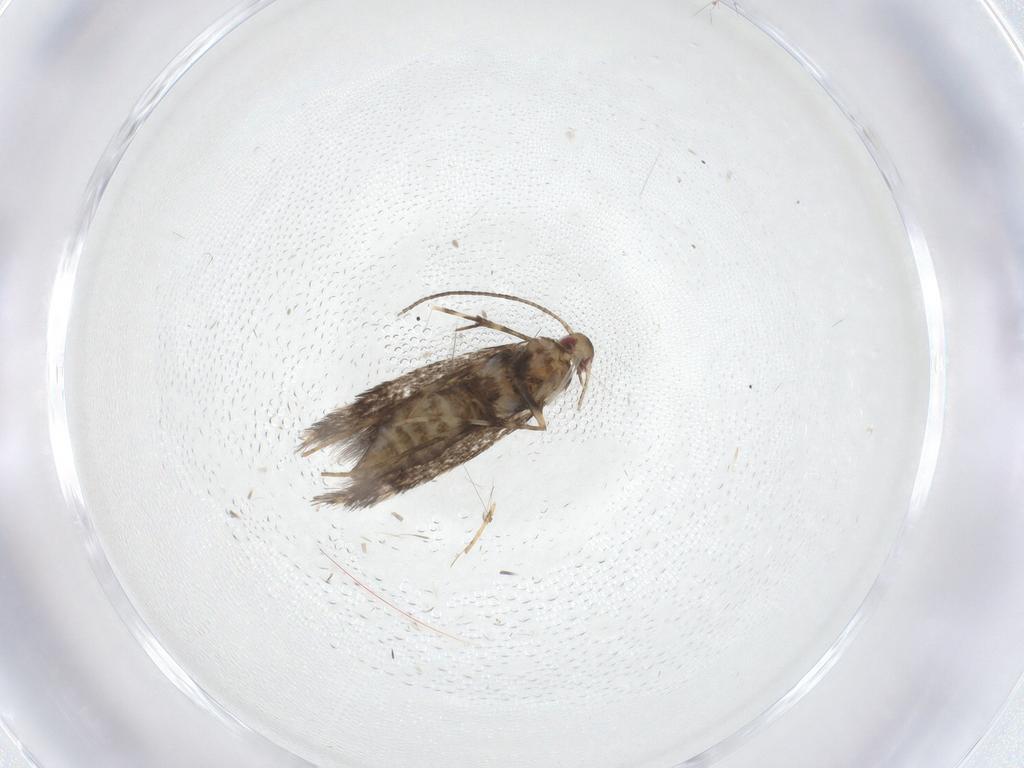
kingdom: Animalia
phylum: Arthropoda
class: Insecta
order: Lepidoptera
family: Gracillariidae
